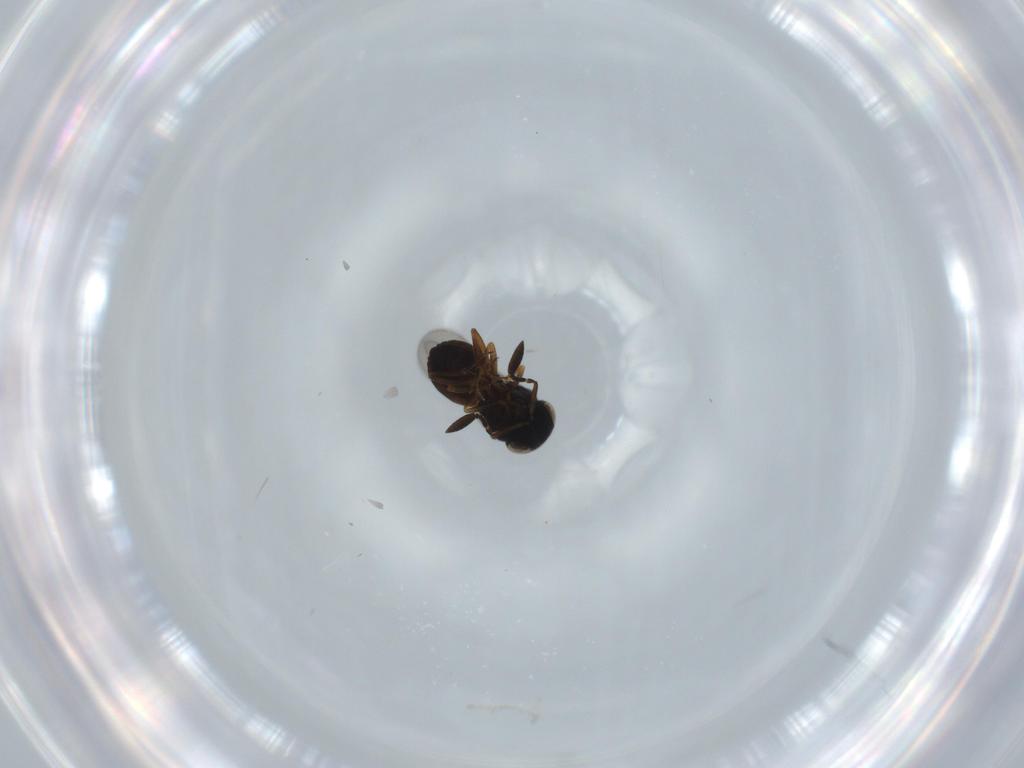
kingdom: Animalia
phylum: Arthropoda
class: Insecta
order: Hymenoptera
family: Scelionidae
